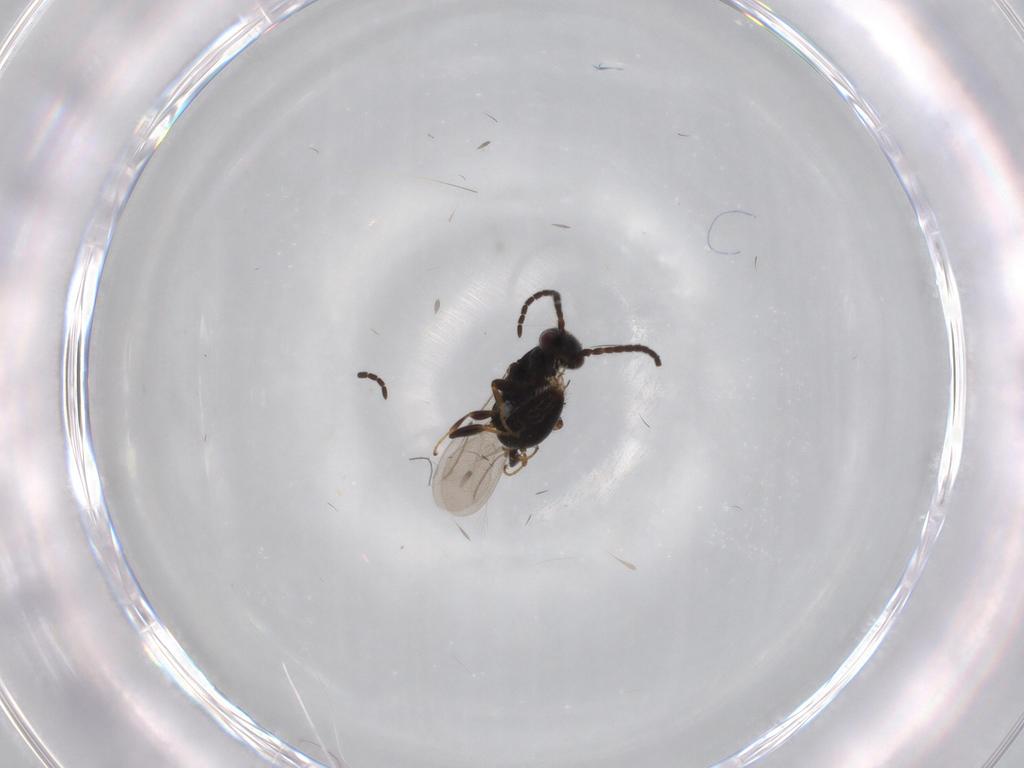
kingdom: Animalia
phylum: Arthropoda
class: Insecta
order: Hymenoptera
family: Bethylidae
